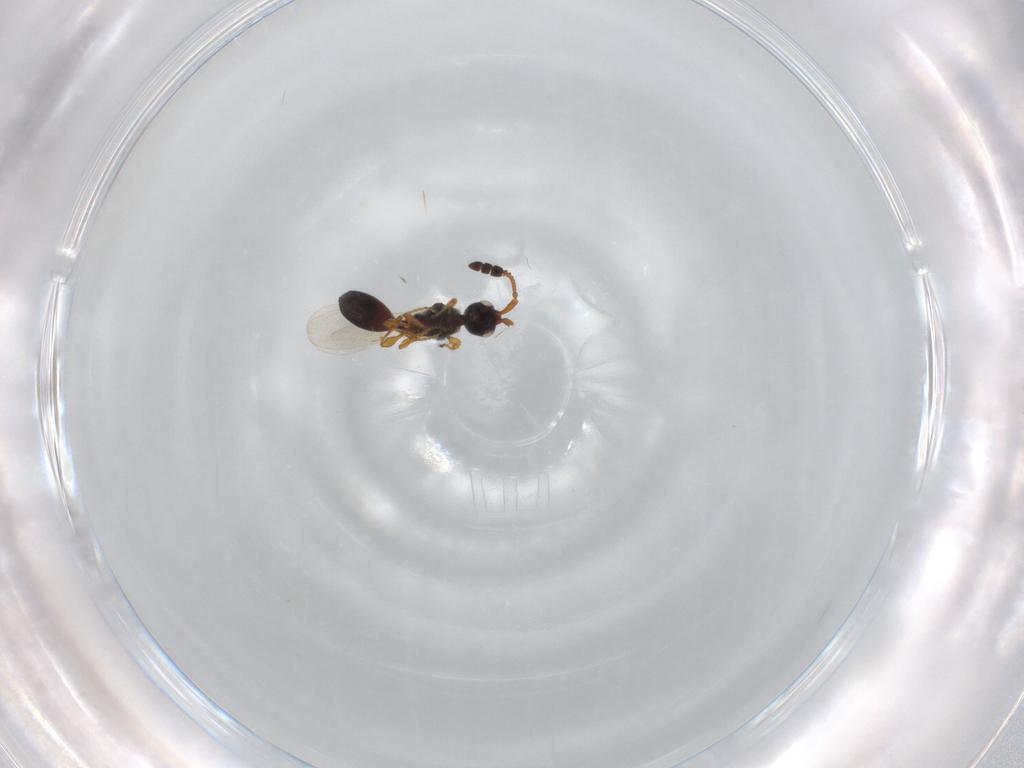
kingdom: Animalia
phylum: Arthropoda
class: Insecta
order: Hymenoptera
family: Diapriidae
